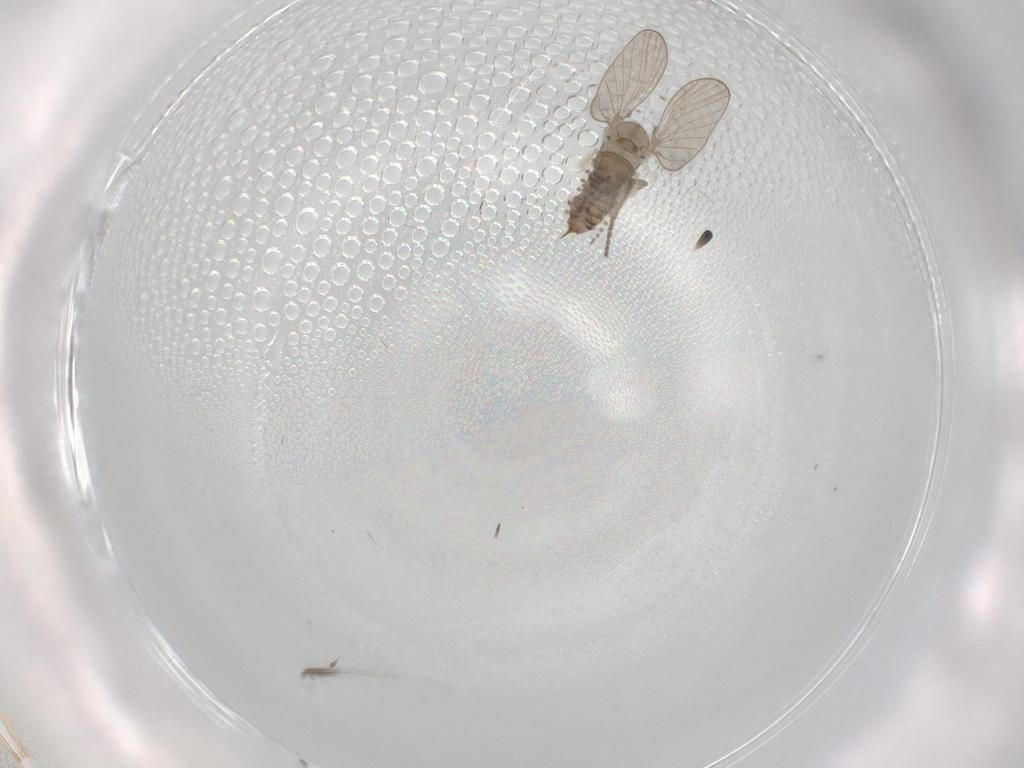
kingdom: Animalia
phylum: Arthropoda
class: Insecta
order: Diptera
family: Psychodidae
